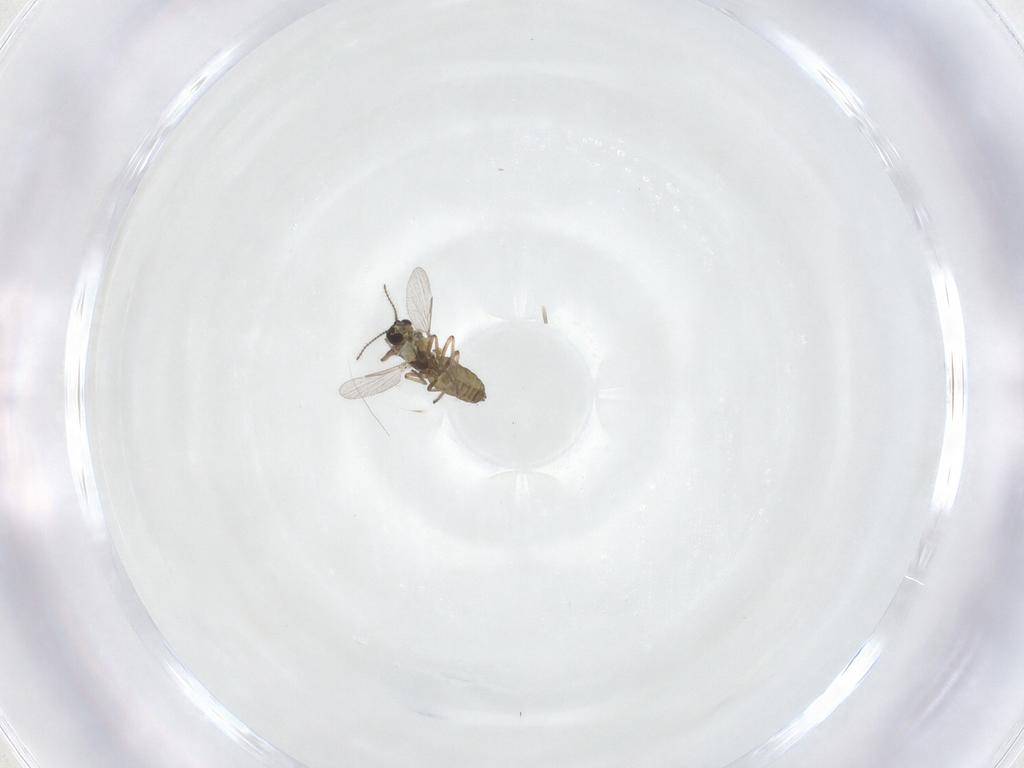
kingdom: Animalia
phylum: Arthropoda
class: Insecta
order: Diptera
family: Ceratopogonidae
